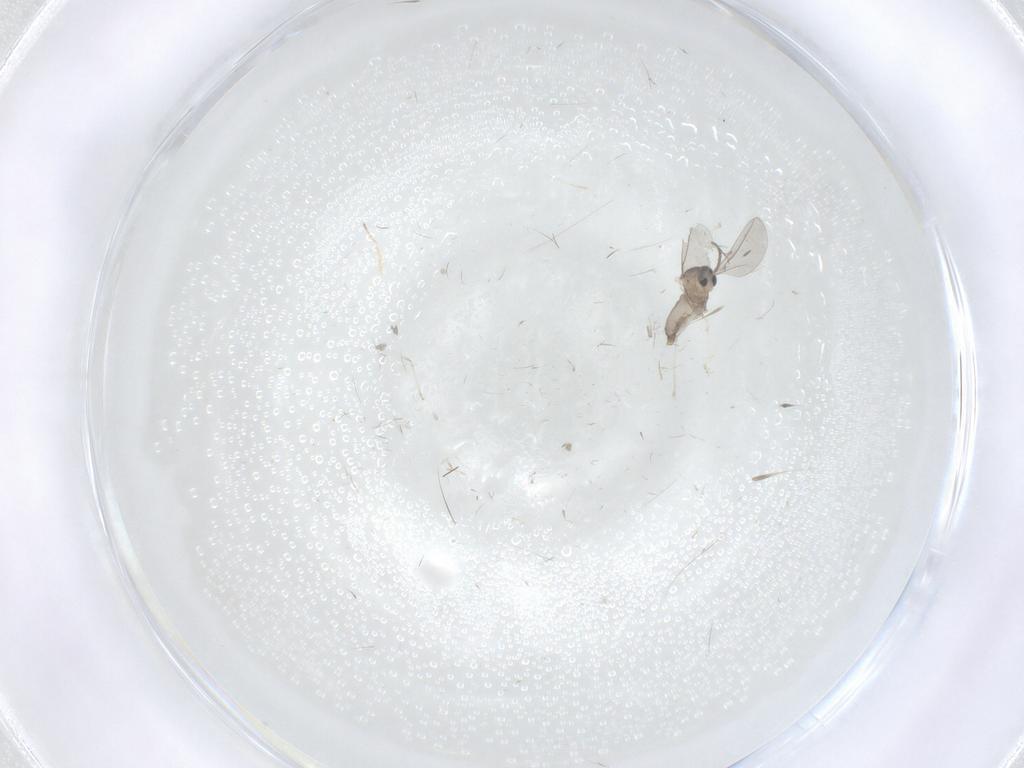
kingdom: Animalia
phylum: Arthropoda
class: Insecta
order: Diptera
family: Cecidomyiidae
